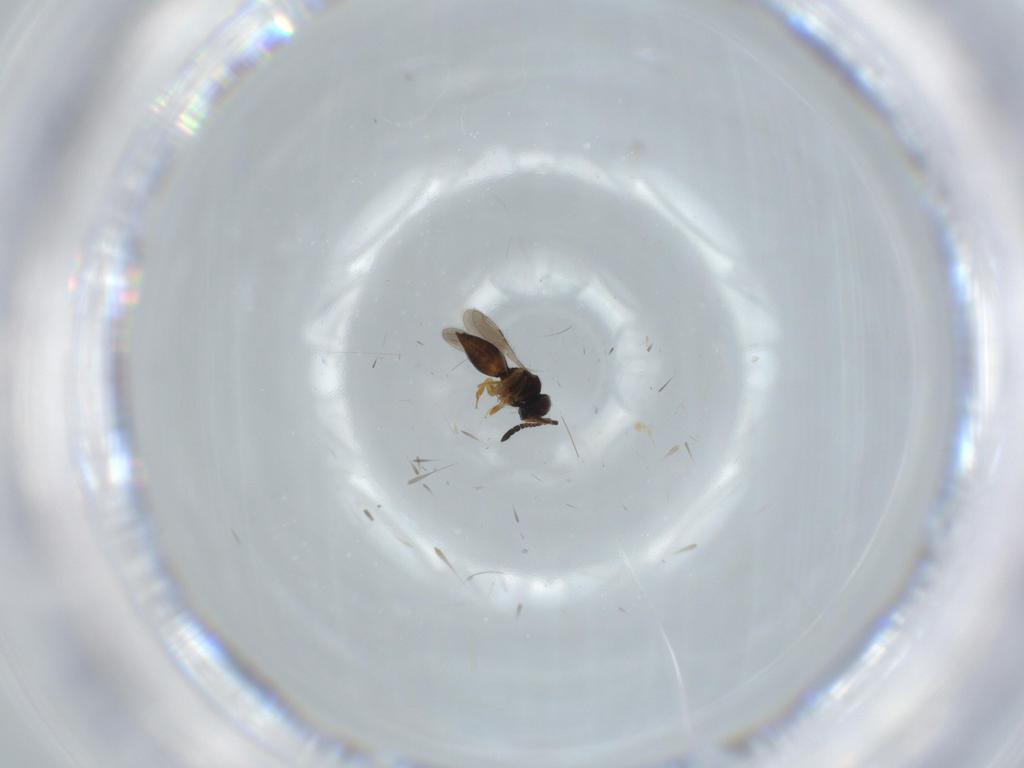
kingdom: Animalia
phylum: Arthropoda
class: Insecta
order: Hymenoptera
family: Ceraphronidae
